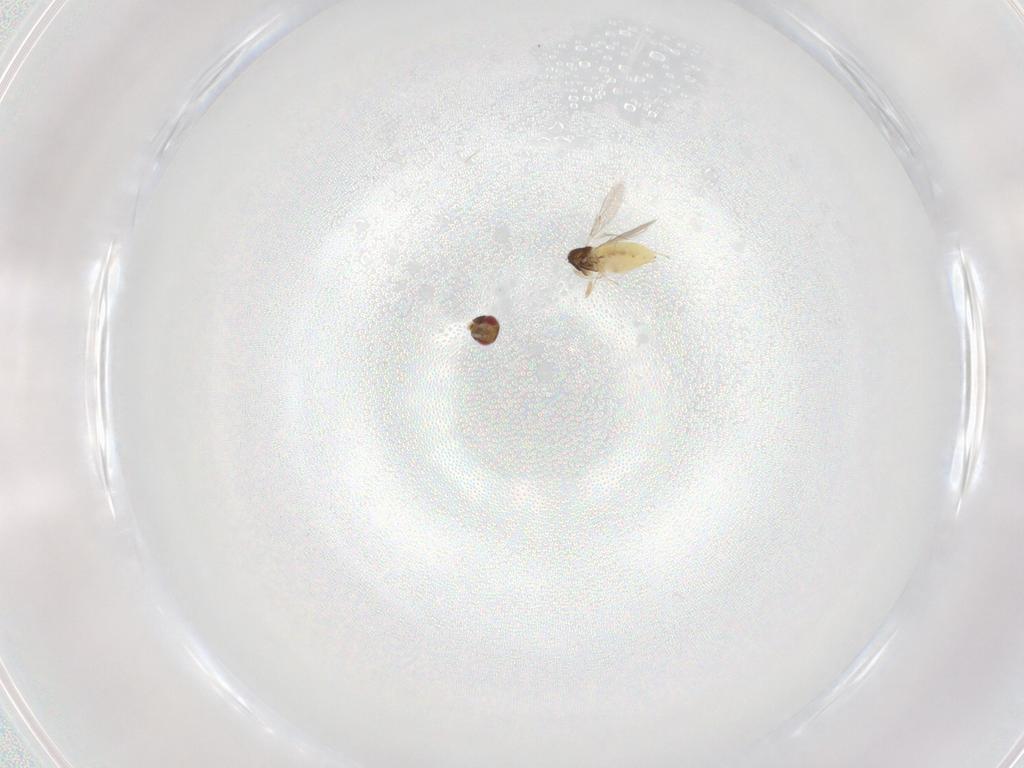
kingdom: Animalia
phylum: Arthropoda
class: Insecta
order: Hymenoptera
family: Trichogrammatidae
